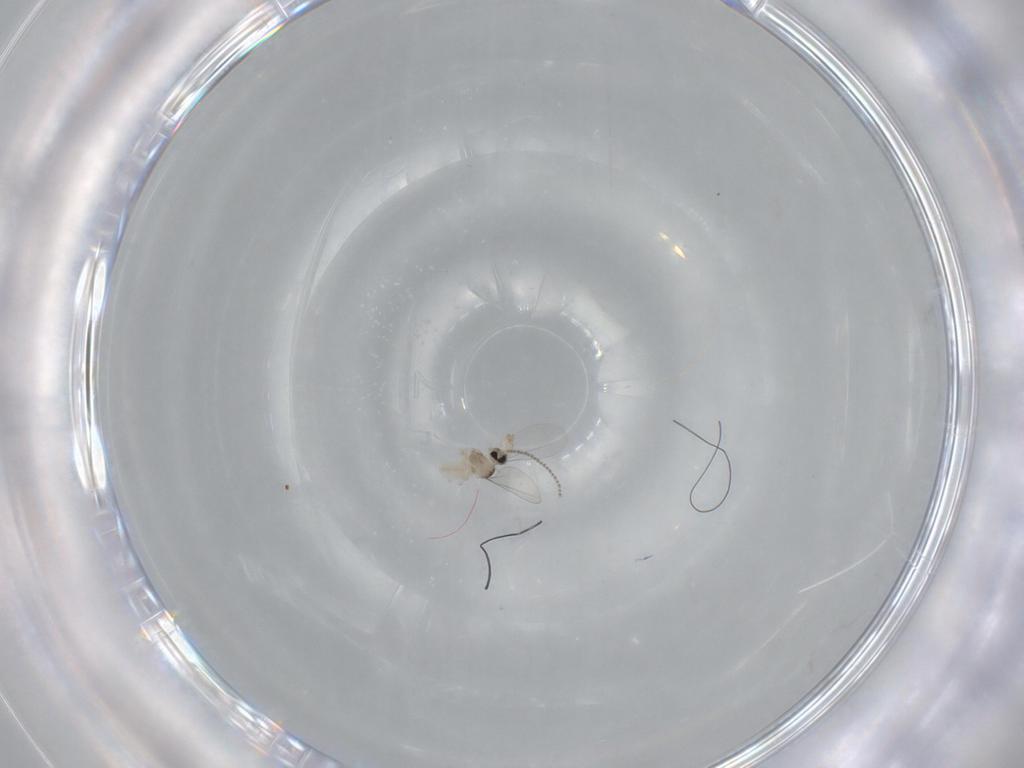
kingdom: Animalia
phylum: Arthropoda
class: Insecta
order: Diptera
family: Cecidomyiidae
